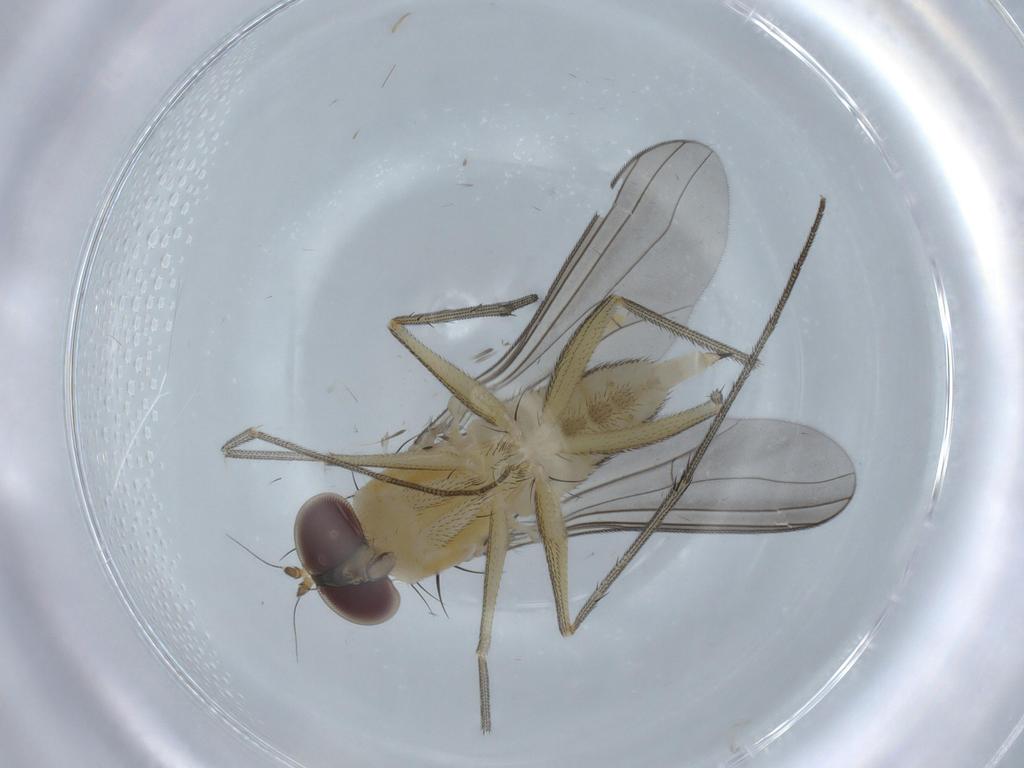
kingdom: Animalia
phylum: Arthropoda
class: Insecta
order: Diptera
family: Dolichopodidae
